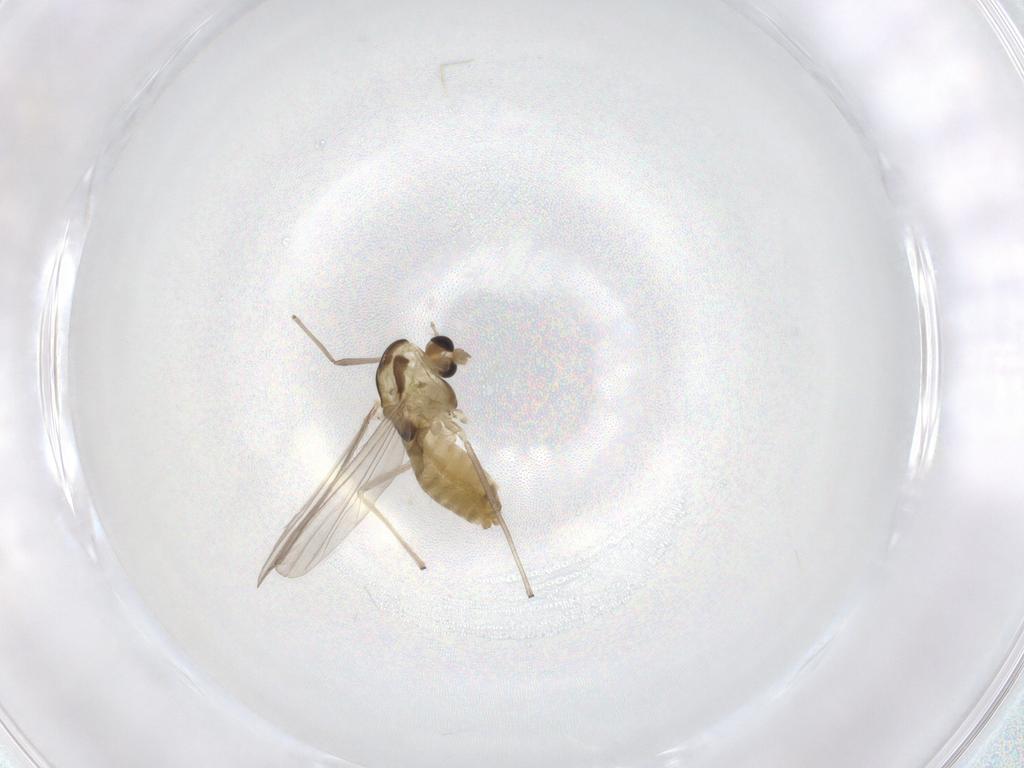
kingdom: Animalia
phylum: Arthropoda
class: Insecta
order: Diptera
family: Chironomidae
